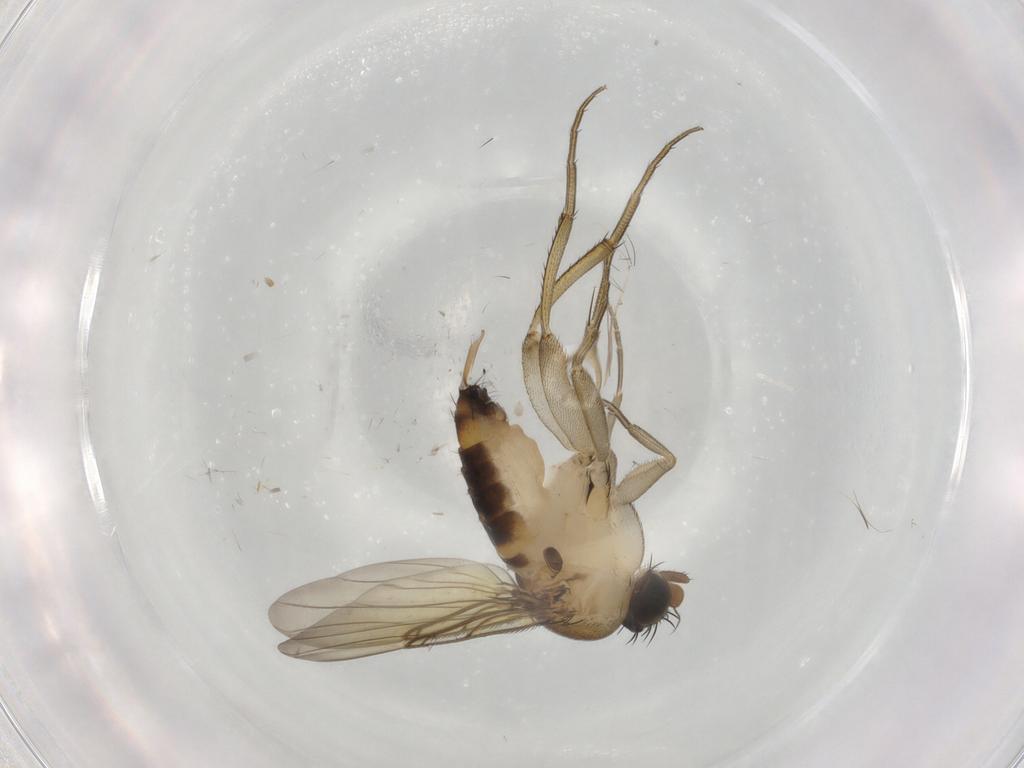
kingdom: Animalia
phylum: Arthropoda
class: Insecta
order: Diptera
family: Phoridae
